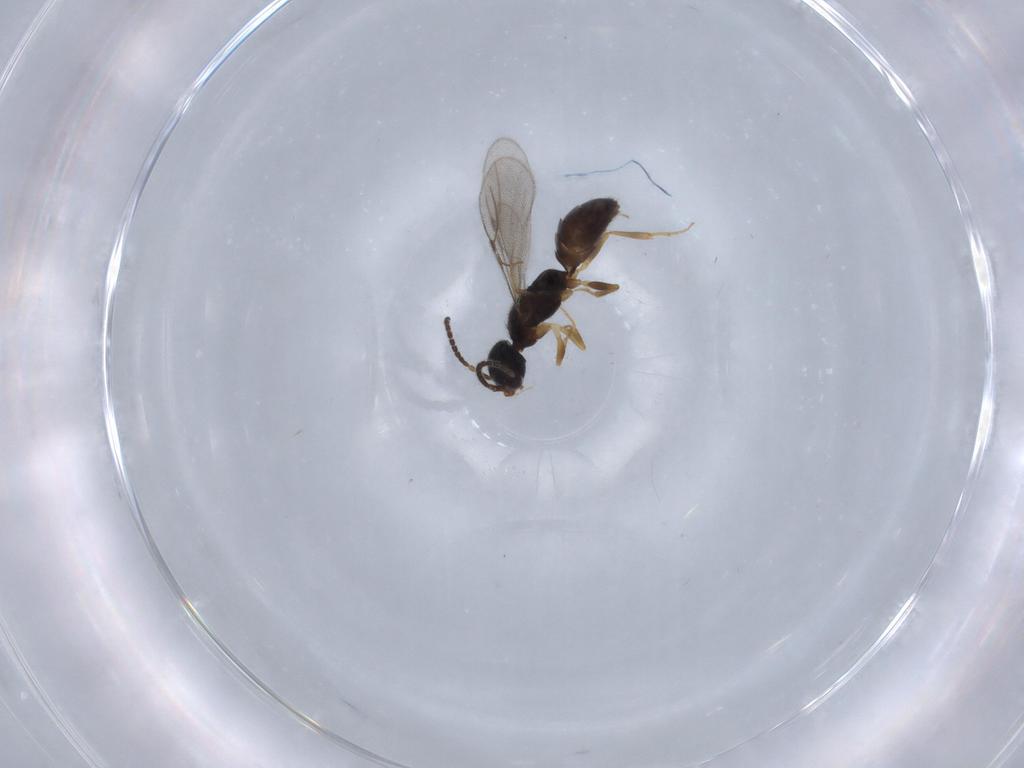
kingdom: Animalia
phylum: Arthropoda
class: Insecta
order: Hymenoptera
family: Bethylidae
